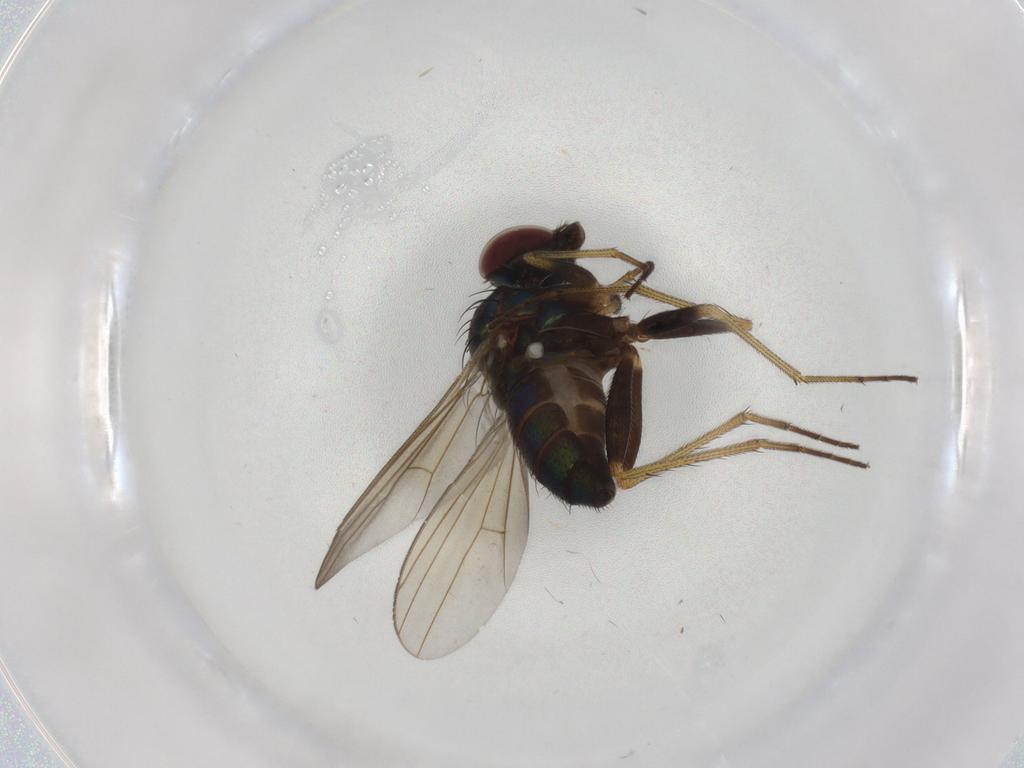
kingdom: Animalia
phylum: Arthropoda
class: Insecta
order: Diptera
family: Dolichopodidae
